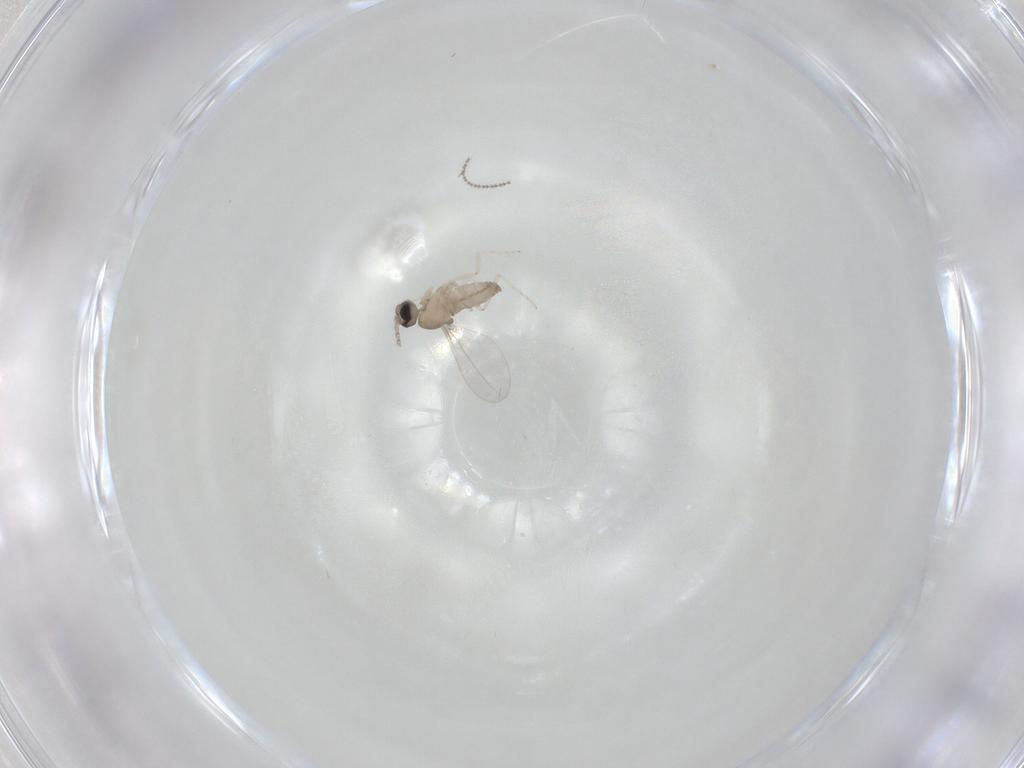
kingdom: Animalia
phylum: Arthropoda
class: Insecta
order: Diptera
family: Cecidomyiidae
